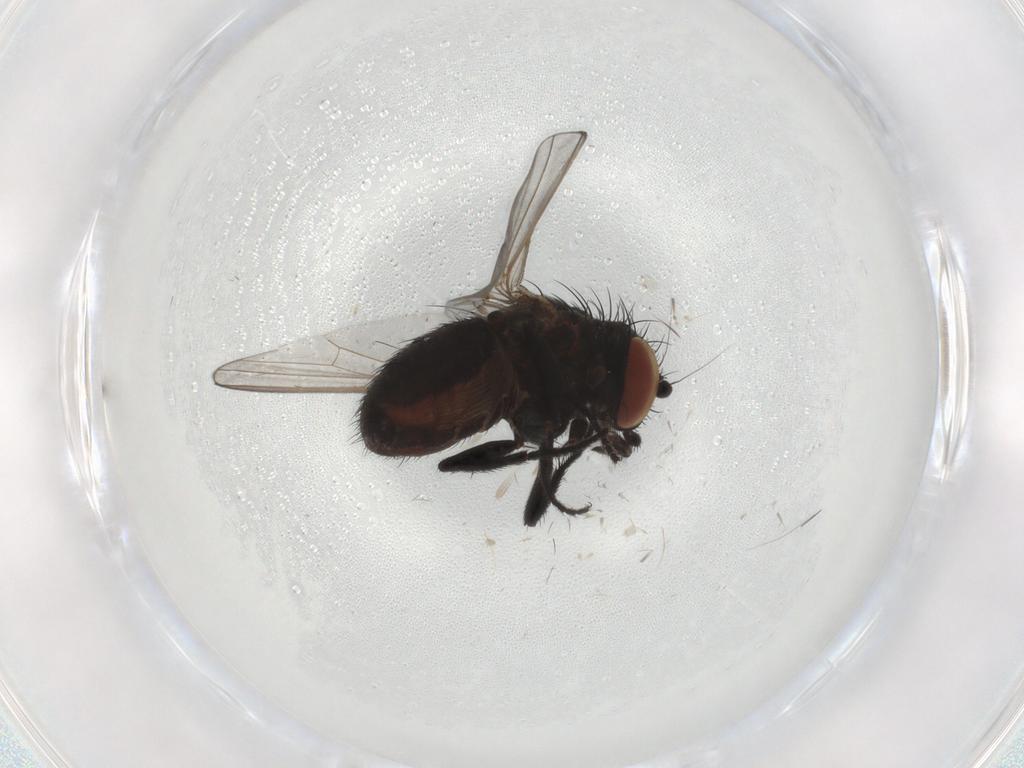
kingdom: Animalia
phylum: Arthropoda
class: Insecta
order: Diptera
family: Milichiidae
